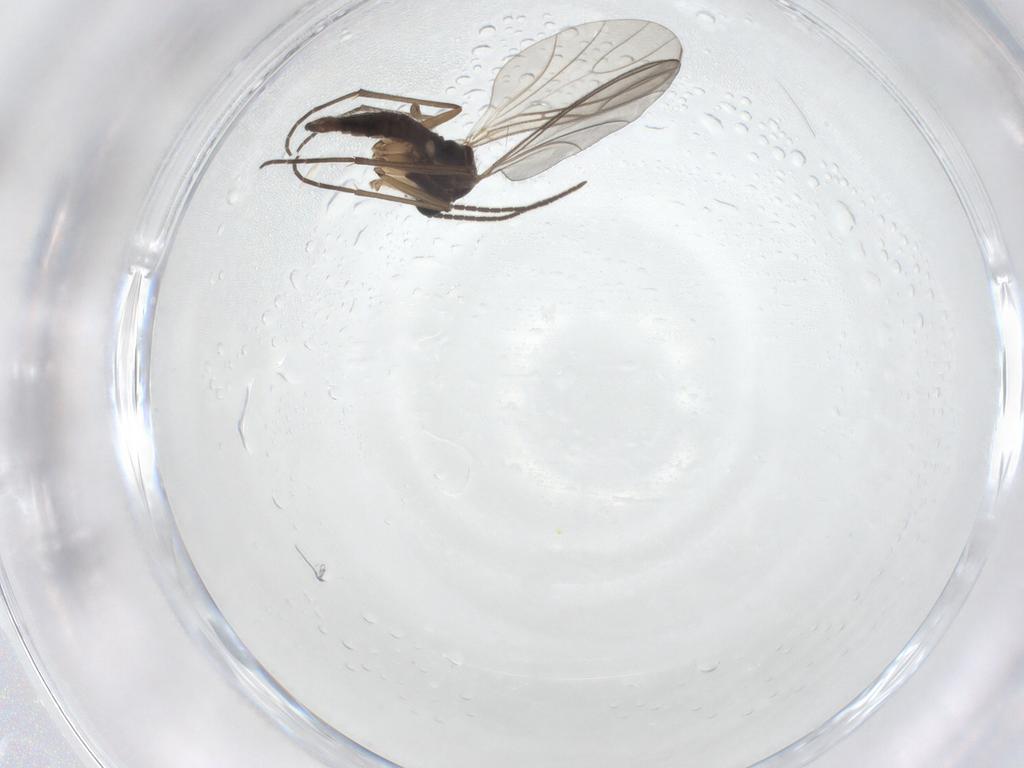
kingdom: Animalia
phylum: Arthropoda
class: Insecta
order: Diptera
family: Sciaridae
